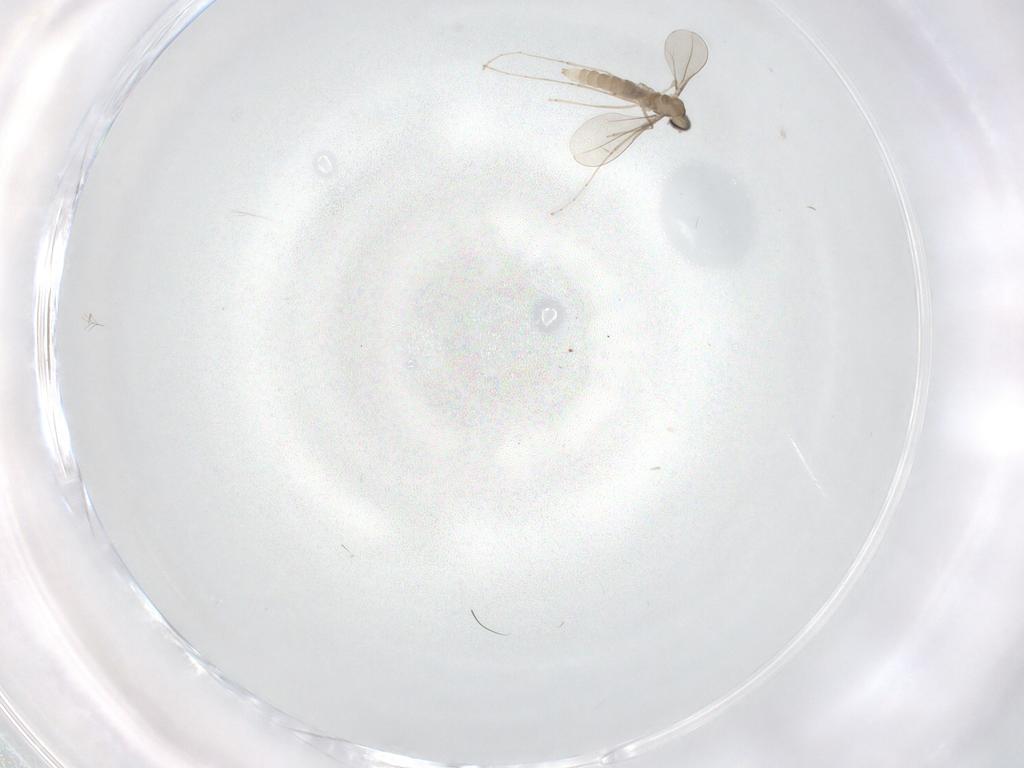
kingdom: Animalia
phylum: Arthropoda
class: Insecta
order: Diptera
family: Cecidomyiidae
